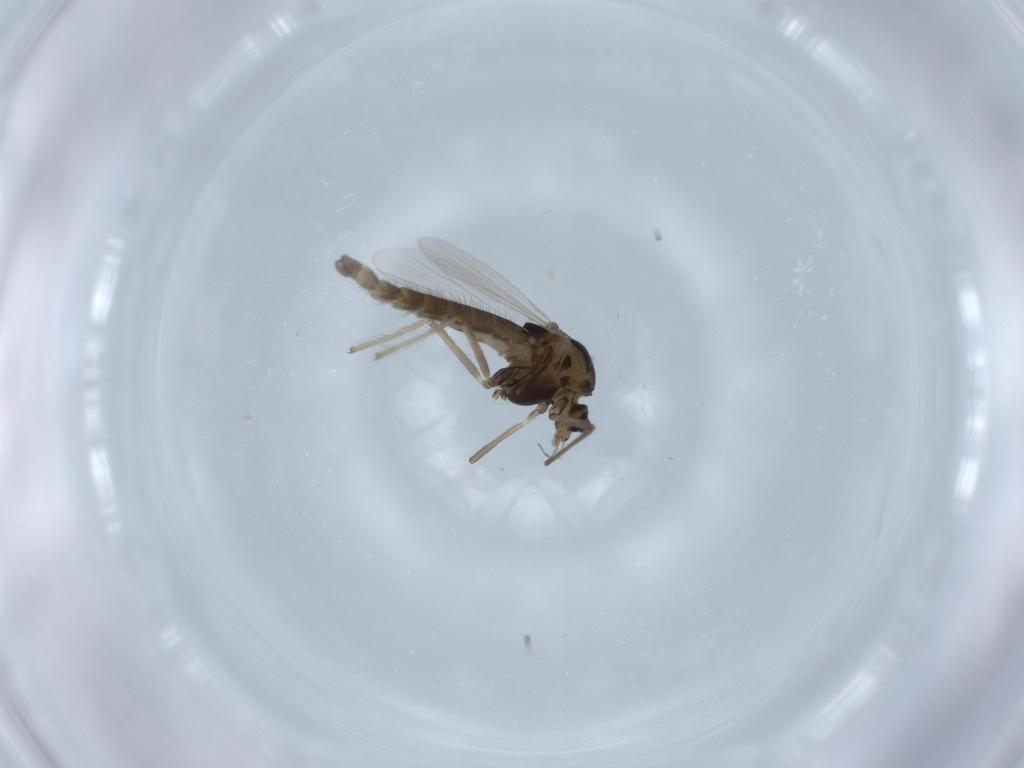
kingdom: Animalia
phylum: Arthropoda
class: Insecta
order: Diptera
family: Chironomidae
